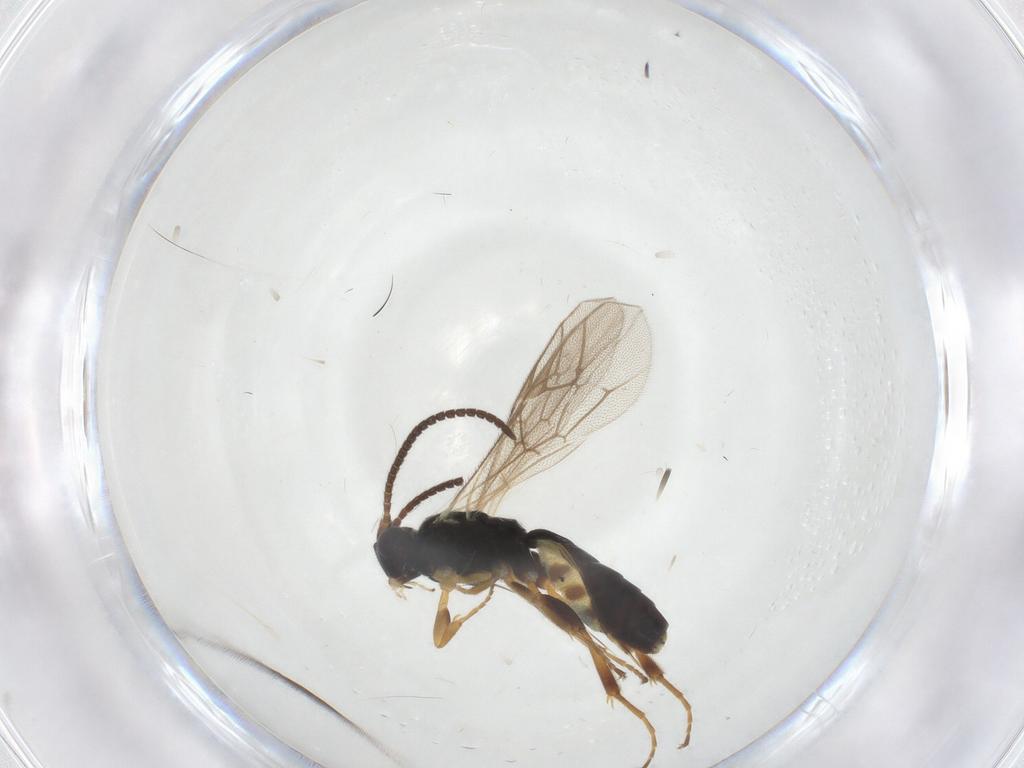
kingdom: Animalia
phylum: Arthropoda
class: Insecta
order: Hymenoptera
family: Ichneumonidae
